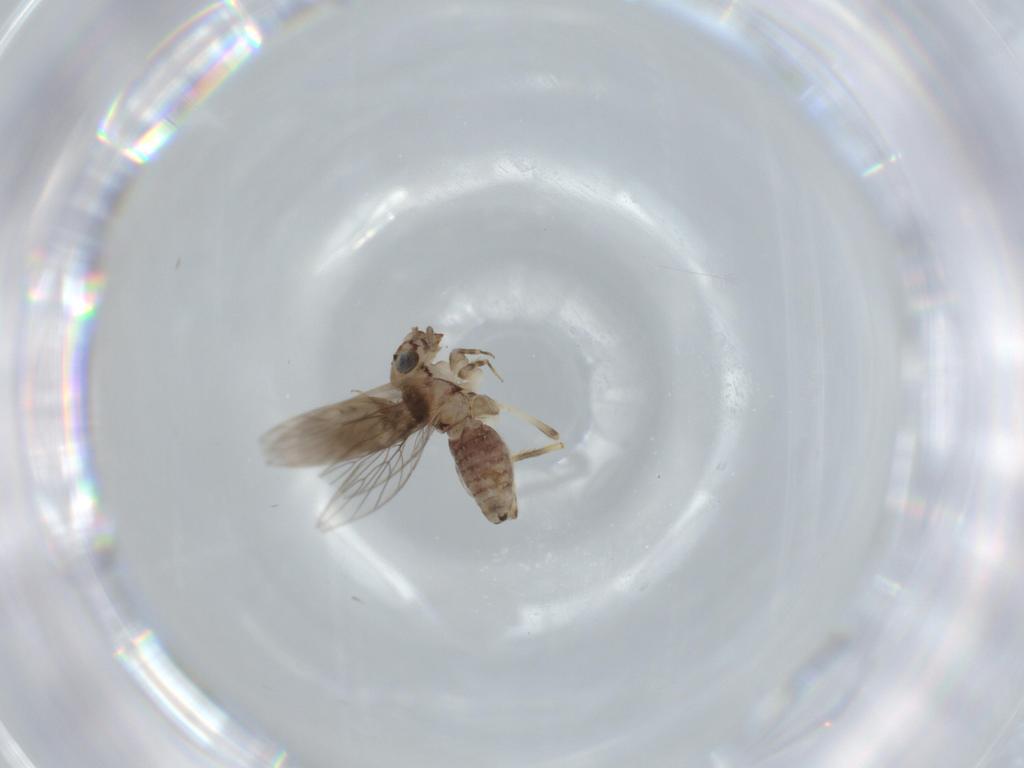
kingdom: Animalia
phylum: Arthropoda
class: Insecta
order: Psocodea
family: Lepidopsocidae
